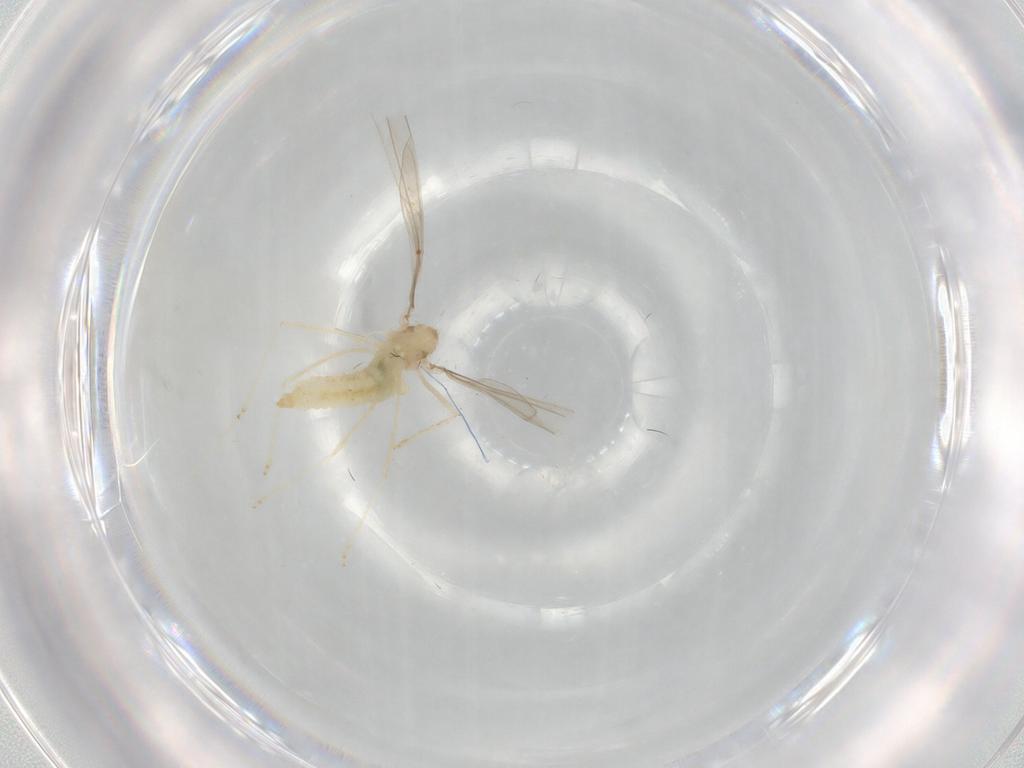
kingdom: Animalia
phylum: Arthropoda
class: Insecta
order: Diptera
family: Cecidomyiidae
